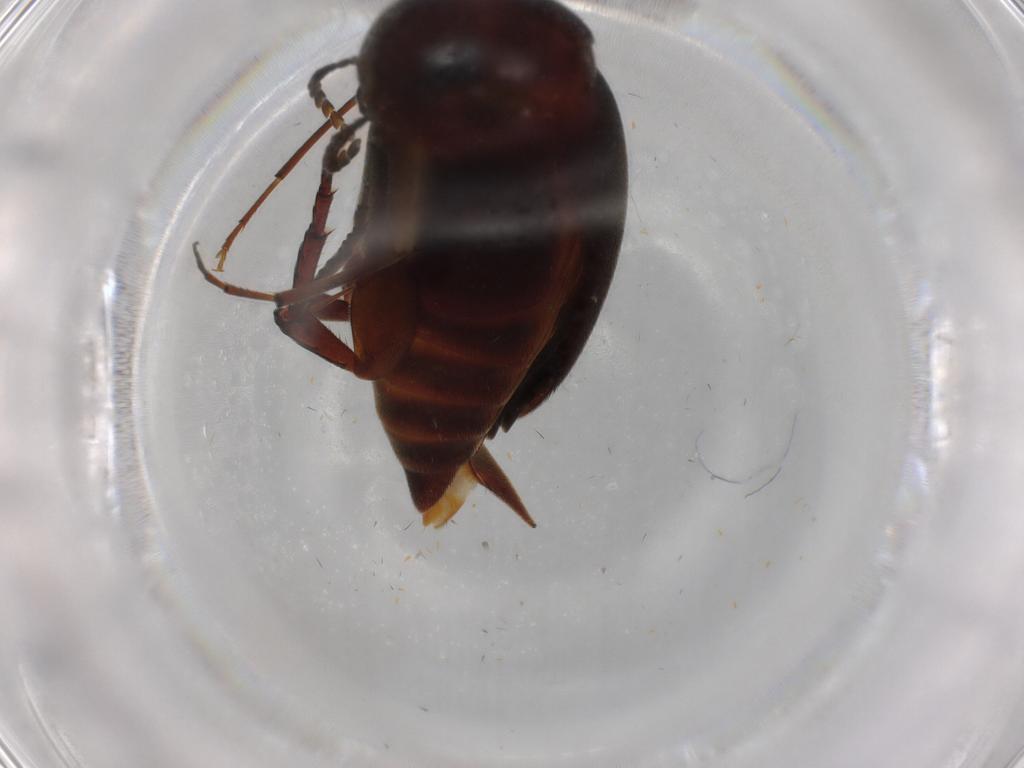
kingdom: Animalia
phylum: Arthropoda
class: Insecta
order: Coleoptera
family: Mordellidae
